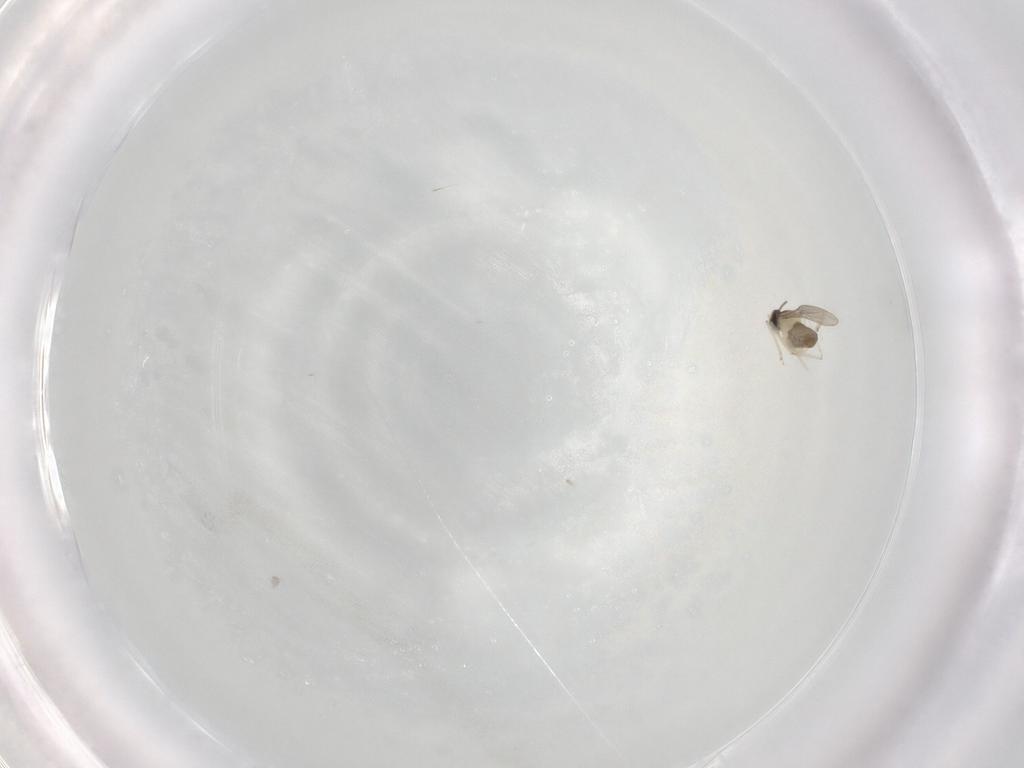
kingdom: Animalia
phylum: Arthropoda
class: Insecta
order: Diptera
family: Cecidomyiidae
